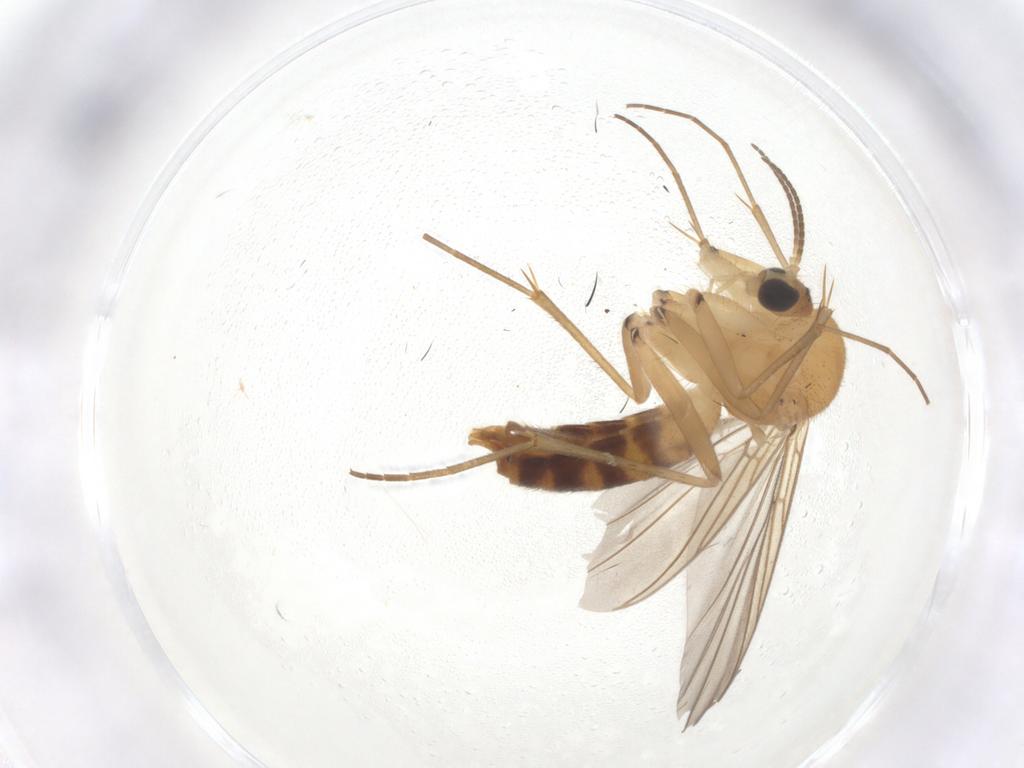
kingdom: Animalia
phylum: Arthropoda
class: Insecta
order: Diptera
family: Mycetophilidae
